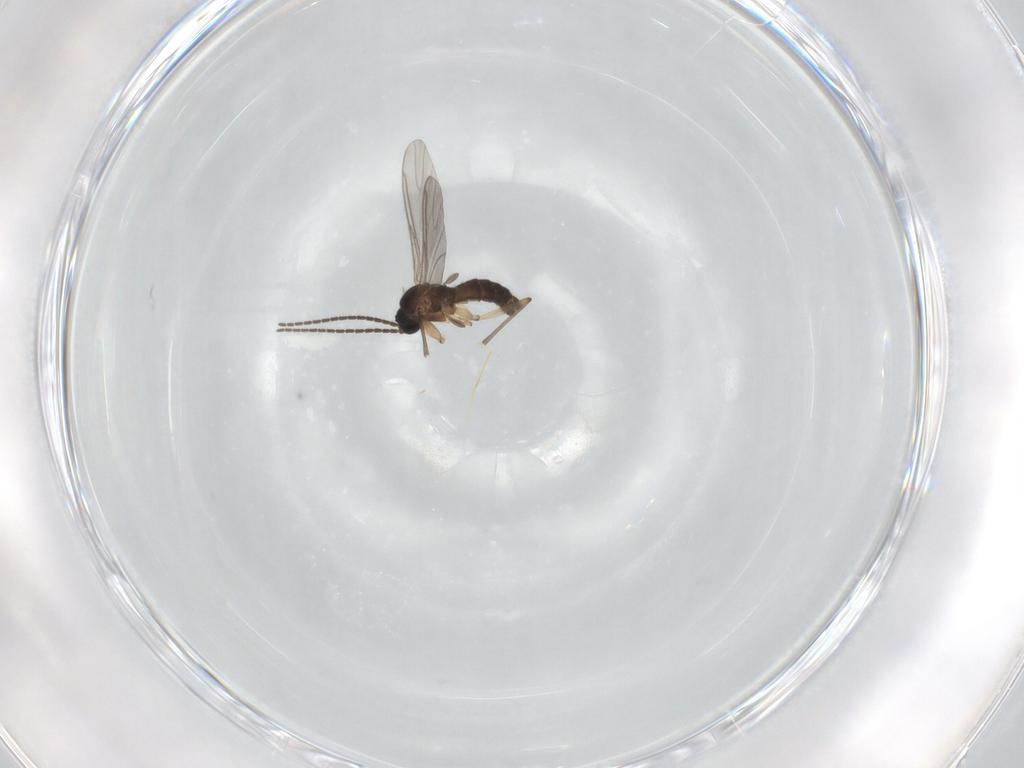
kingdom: Animalia
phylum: Arthropoda
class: Insecta
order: Diptera
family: Sciaridae
